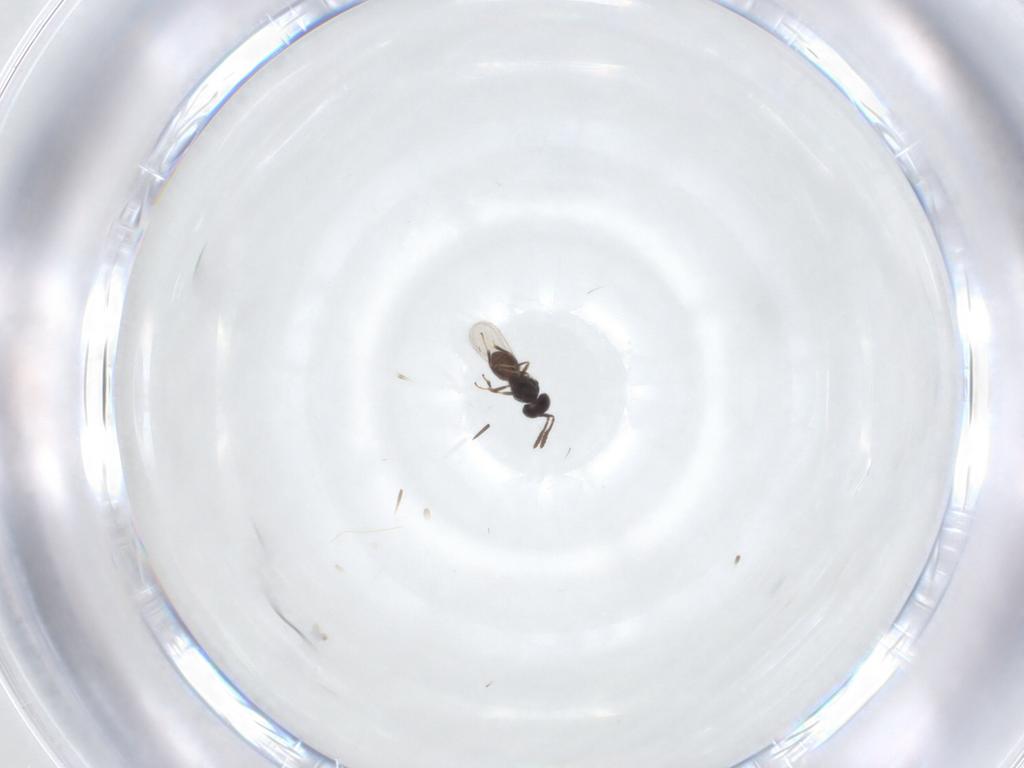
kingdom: Animalia
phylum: Arthropoda
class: Insecta
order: Hymenoptera
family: Scelionidae
